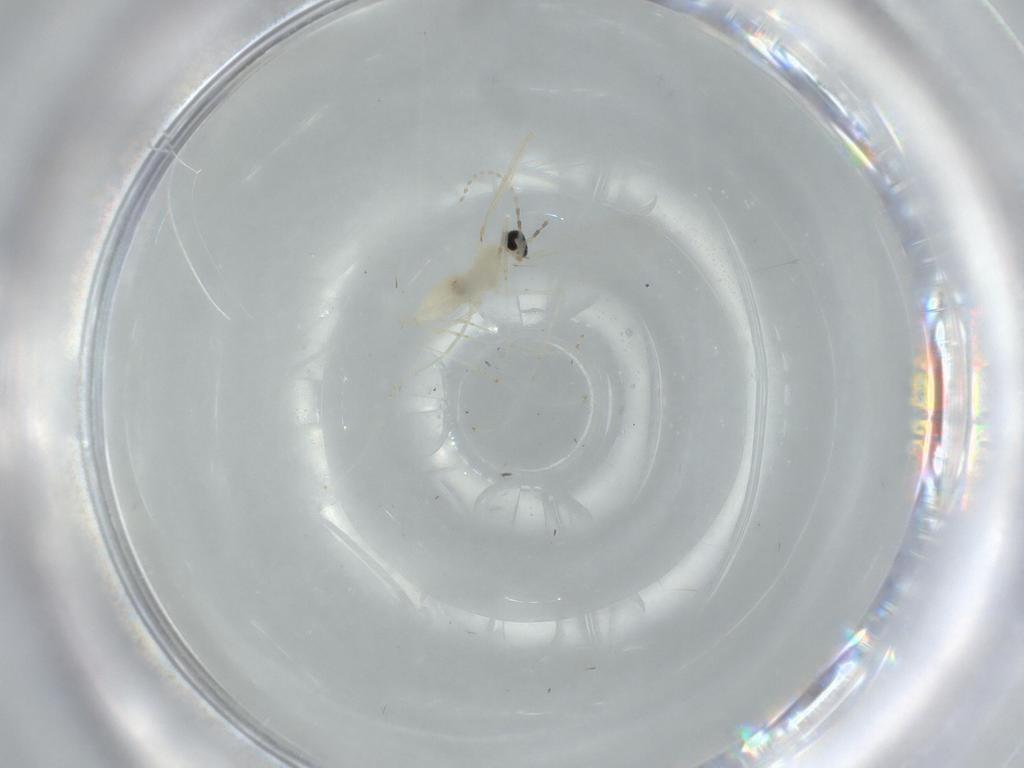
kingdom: Animalia
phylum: Arthropoda
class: Insecta
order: Diptera
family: Cecidomyiidae
